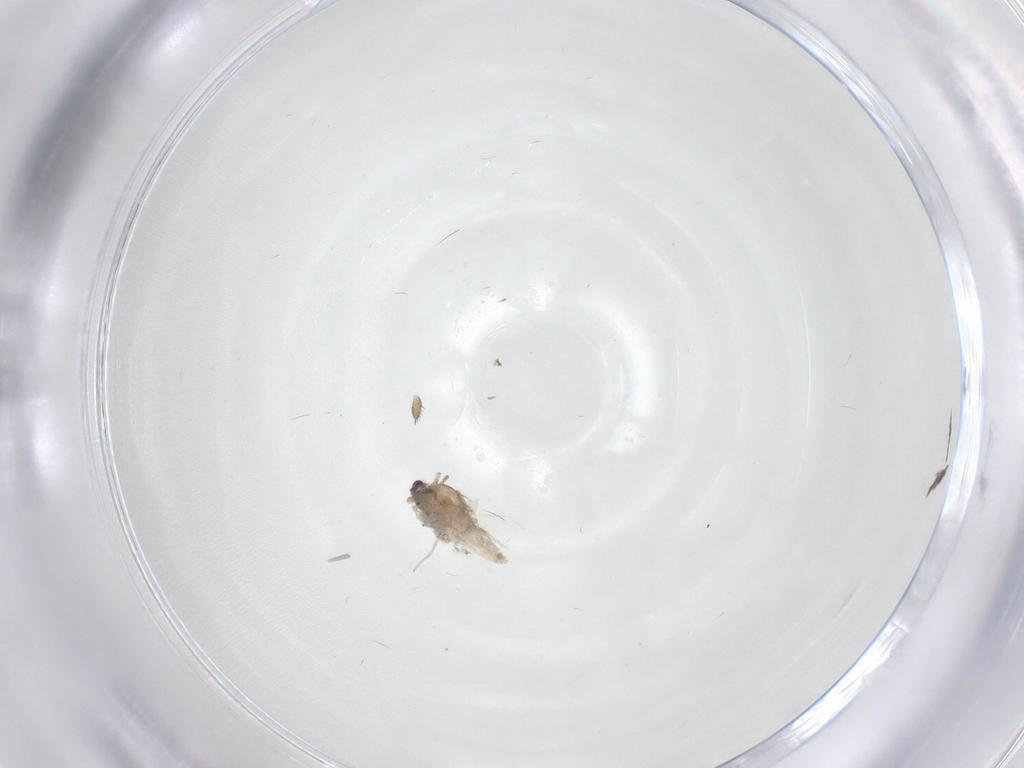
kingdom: Animalia
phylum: Arthropoda
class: Insecta
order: Diptera
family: Psychodidae
